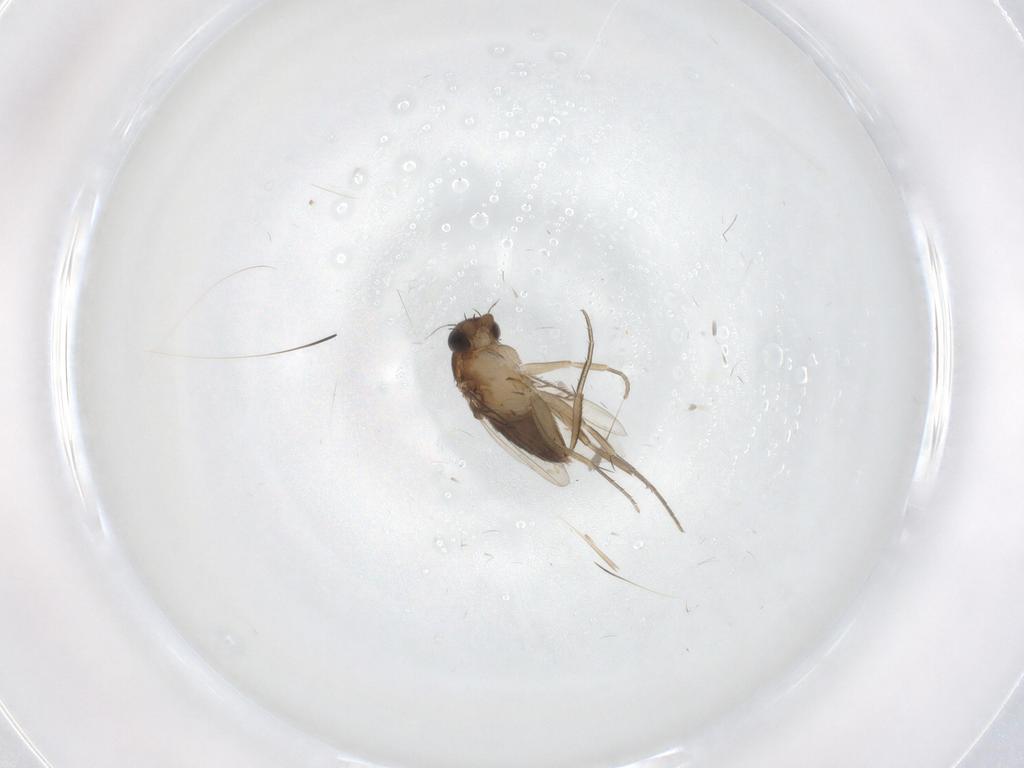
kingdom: Animalia
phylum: Arthropoda
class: Insecta
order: Diptera
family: Phoridae
